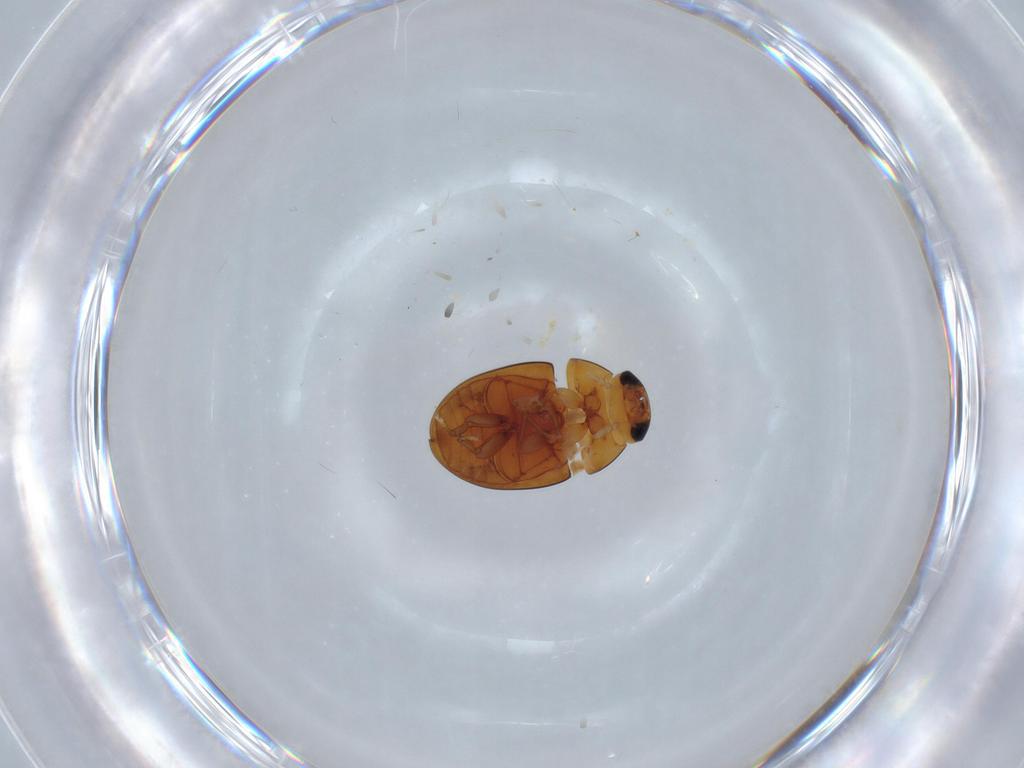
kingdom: Animalia
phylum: Arthropoda
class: Insecta
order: Coleoptera
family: Phalacridae
